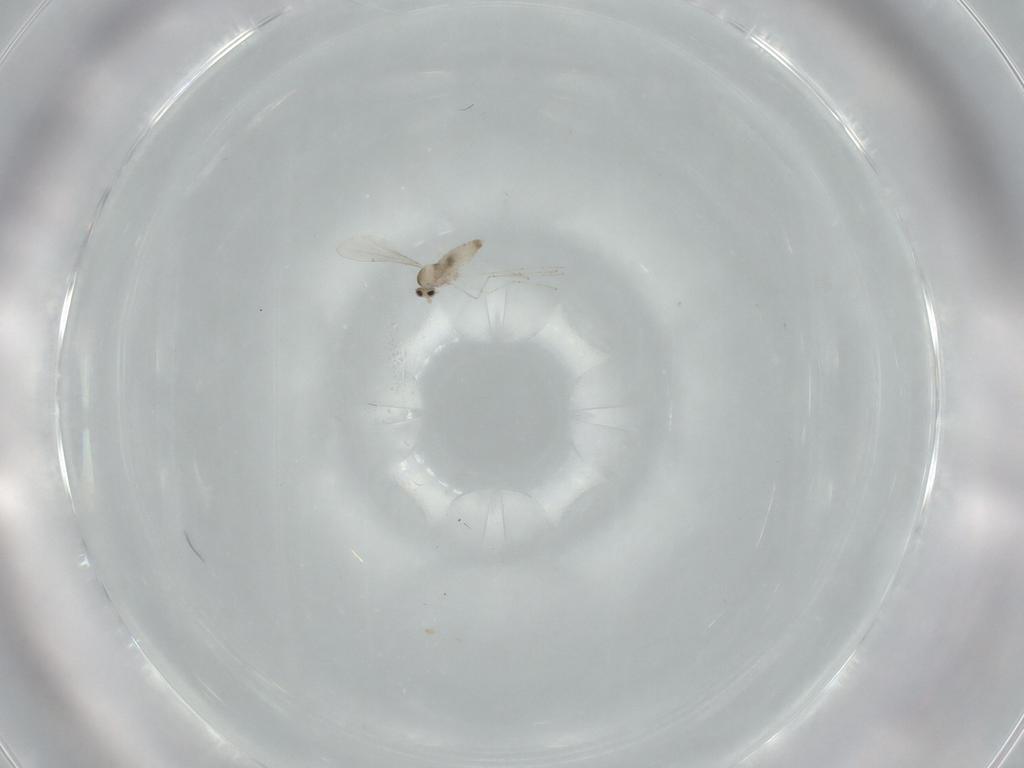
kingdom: Animalia
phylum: Arthropoda
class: Insecta
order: Diptera
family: Cecidomyiidae
